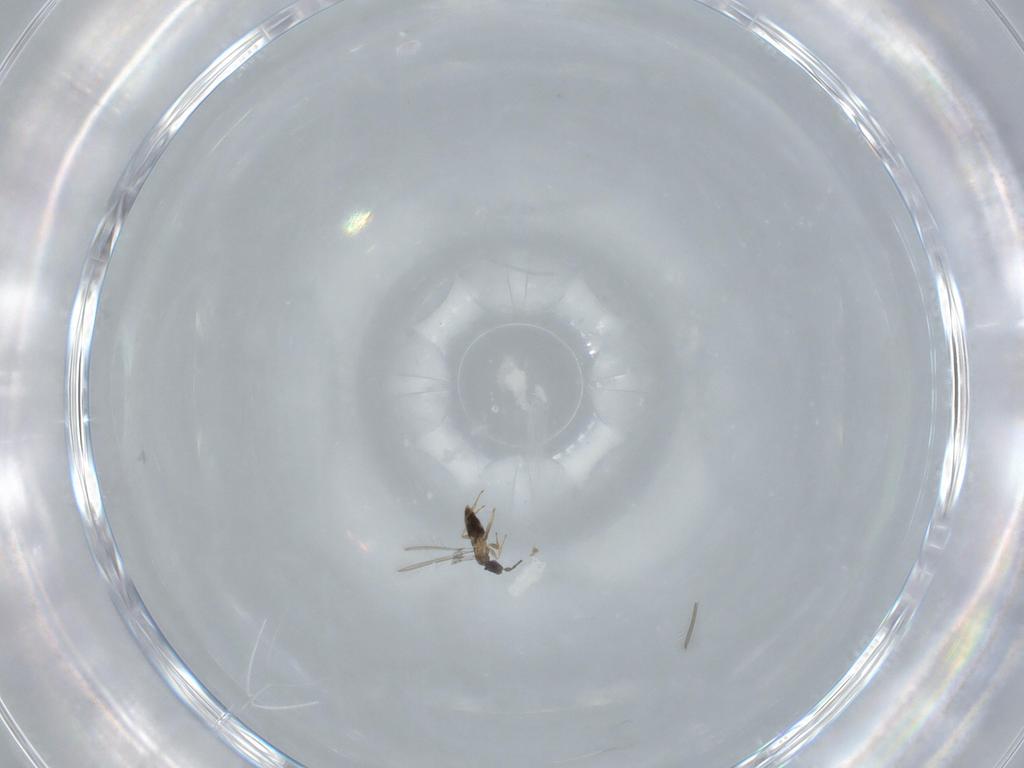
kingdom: Animalia
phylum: Arthropoda
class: Insecta
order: Hymenoptera
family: Mymaridae
